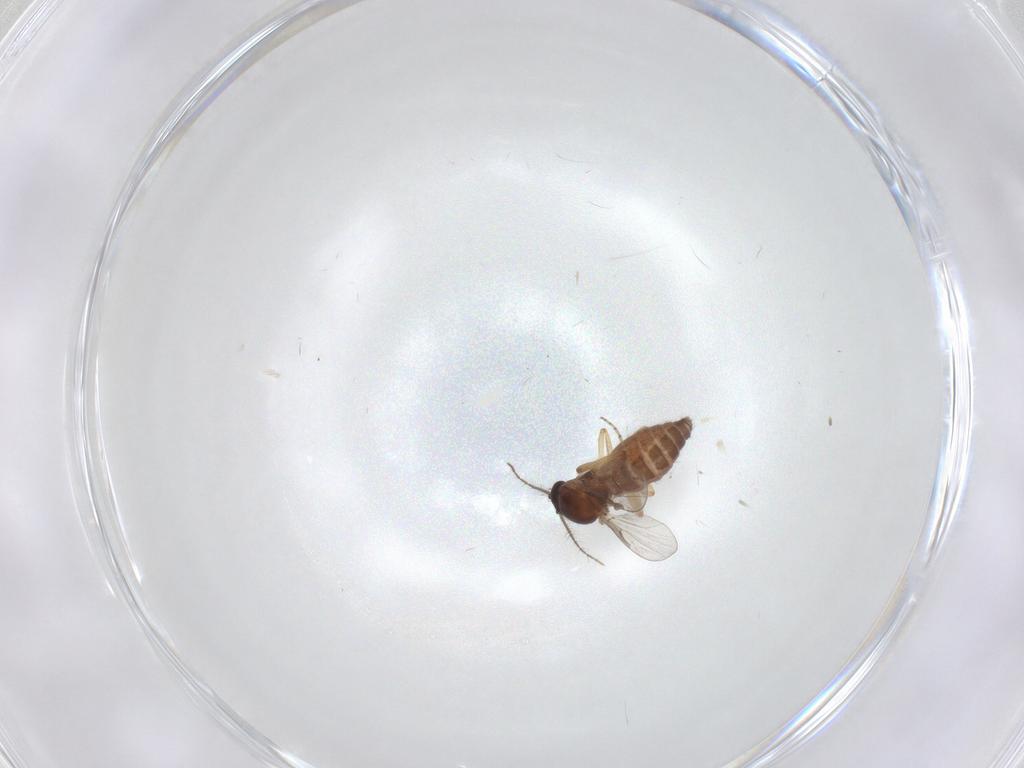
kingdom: Animalia
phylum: Arthropoda
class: Insecta
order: Diptera
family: Ceratopogonidae
